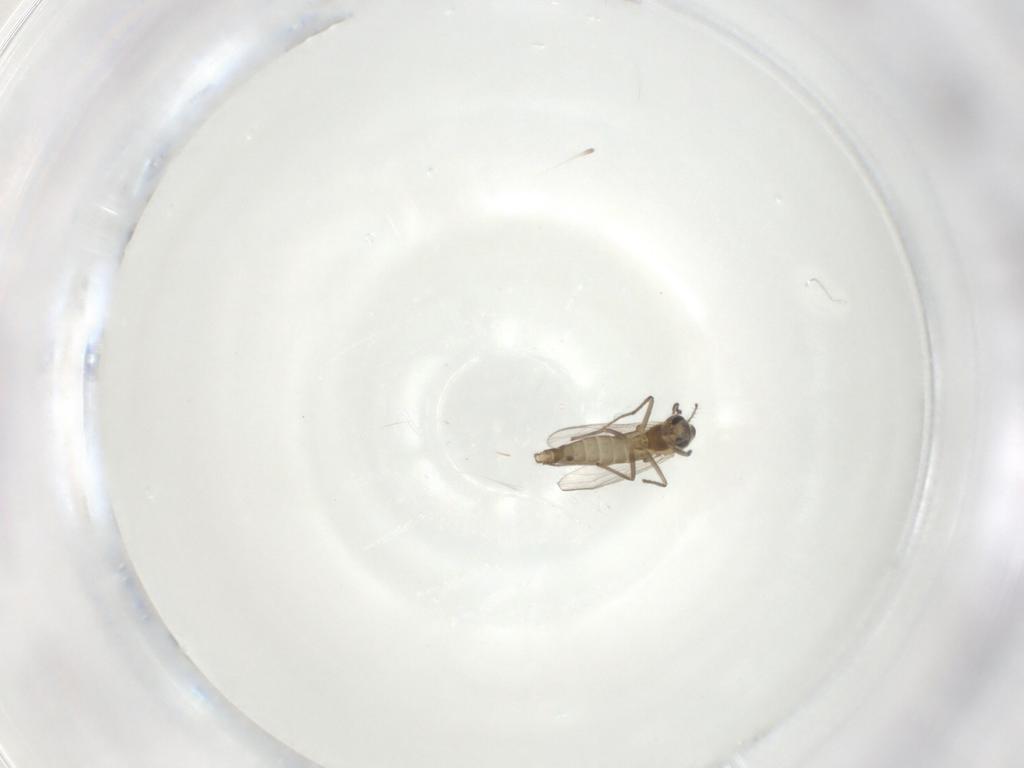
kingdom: Animalia
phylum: Arthropoda
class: Insecta
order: Diptera
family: Chironomidae
